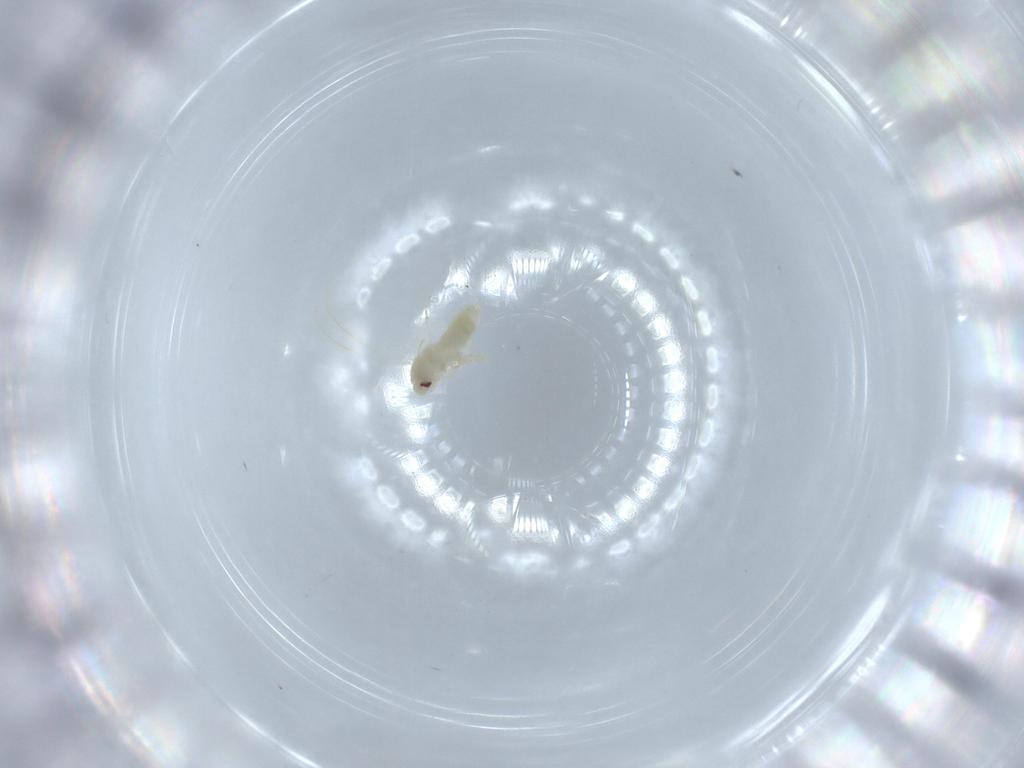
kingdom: Animalia
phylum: Arthropoda
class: Insecta
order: Hemiptera
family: Aleyrodidae
